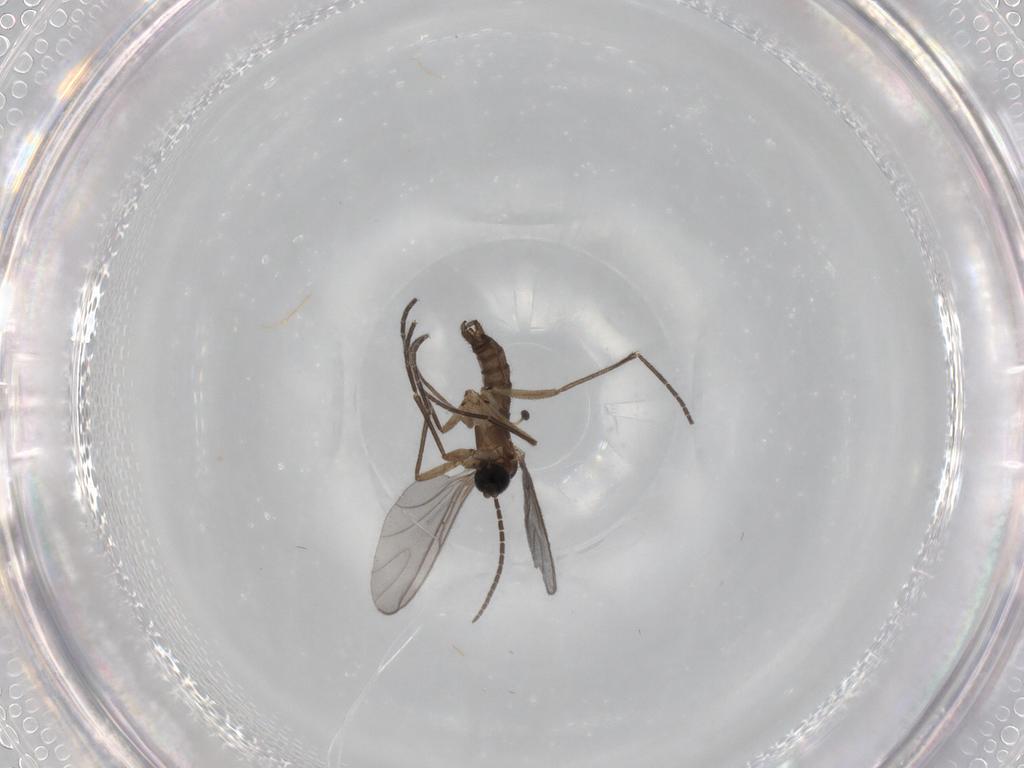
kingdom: Animalia
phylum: Arthropoda
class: Insecta
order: Diptera
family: Sciaridae
